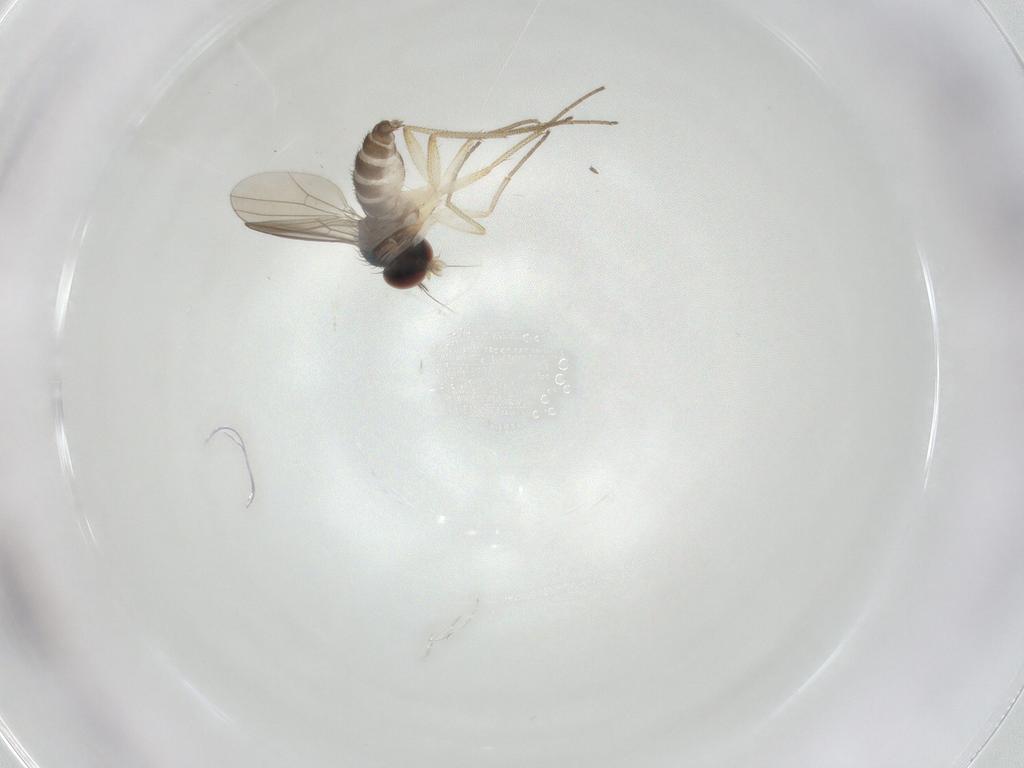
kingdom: Animalia
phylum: Arthropoda
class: Insecta
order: Diptera
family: Dolichopodidae
